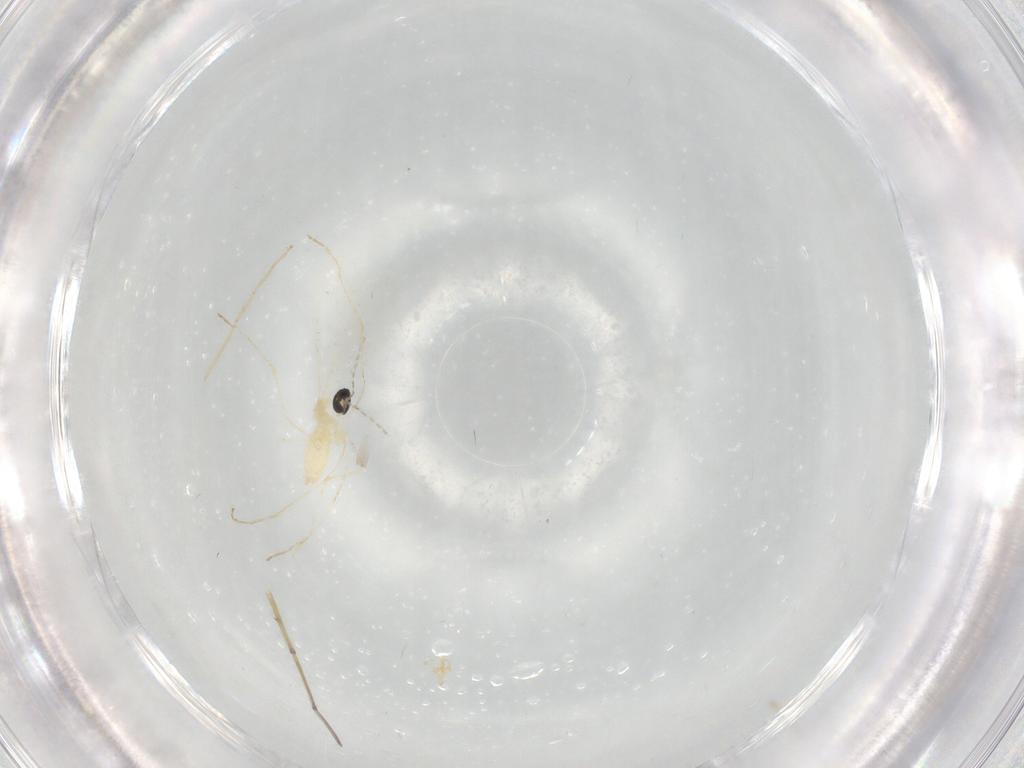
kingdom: Animalia
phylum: Arthropoda
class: Insecta
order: Diptera
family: Cecidomyiidae
